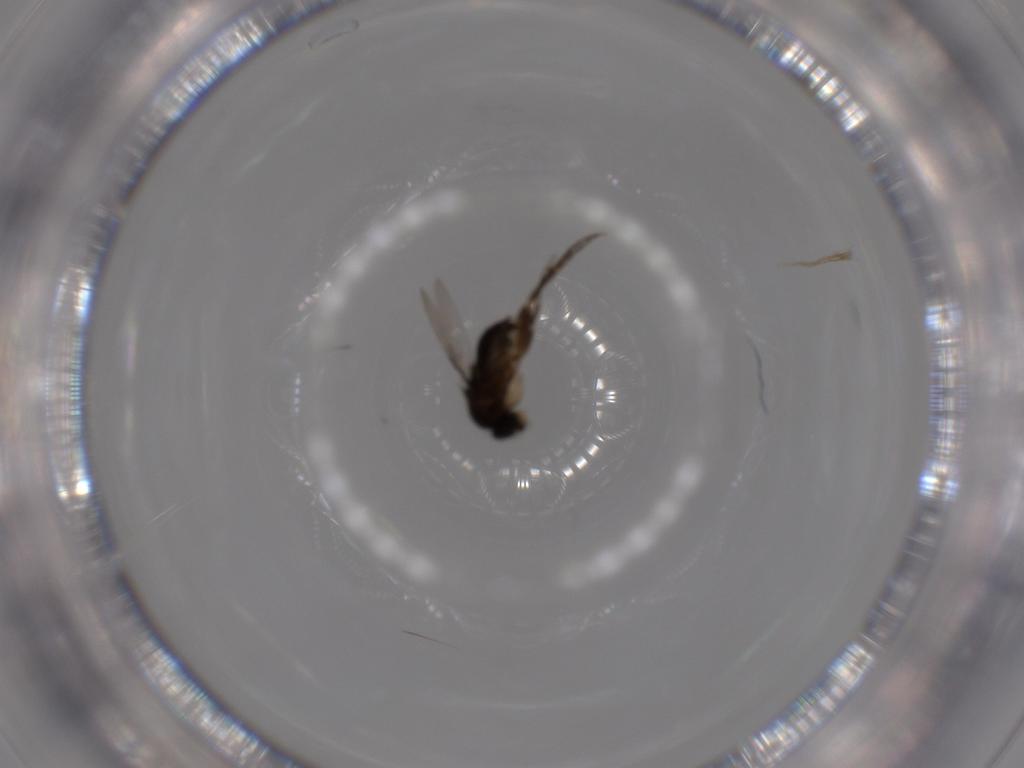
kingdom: Animalia
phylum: Arthropoda
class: Insecta
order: Diptera
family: Phoridae
